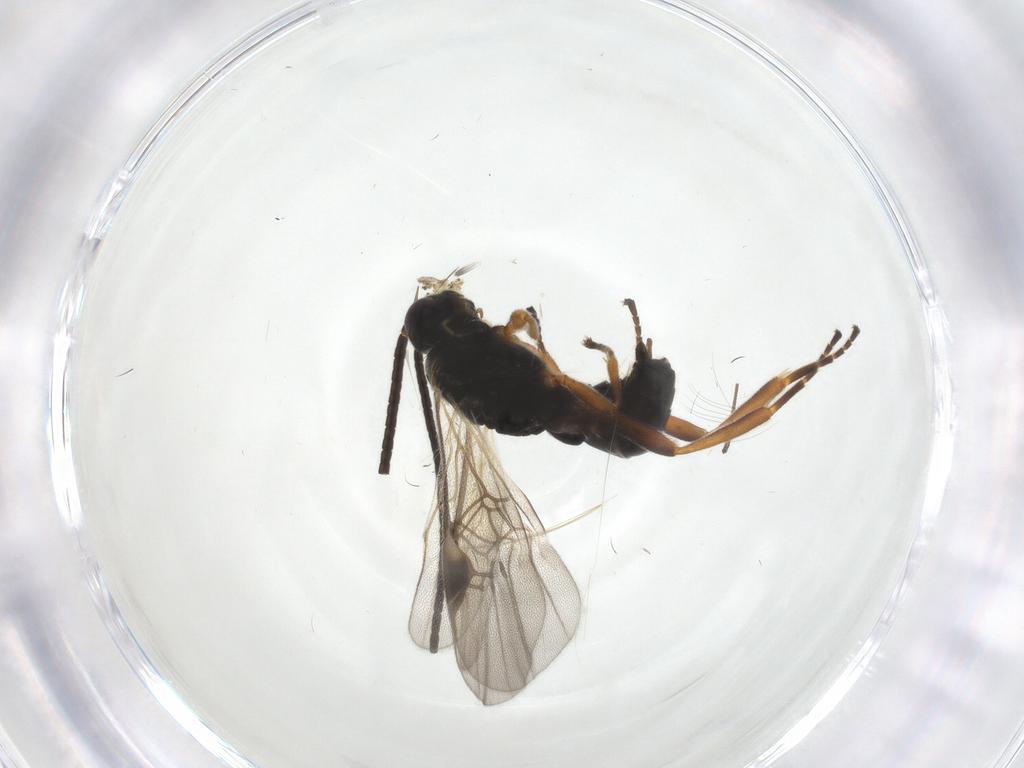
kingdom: Animalia
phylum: Arthropoda
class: Insecta
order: Hymenoptera
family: Braconidae
